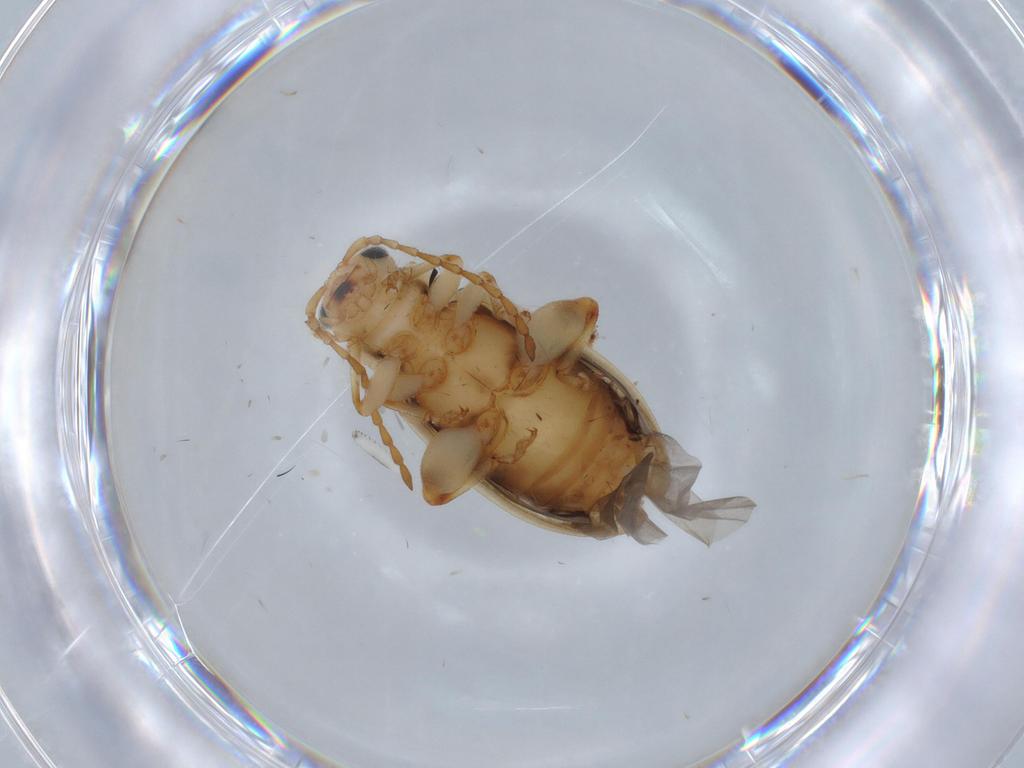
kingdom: Animalia
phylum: Arthropoda
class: Insecta
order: Coleoptera
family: Chrysomelidae
